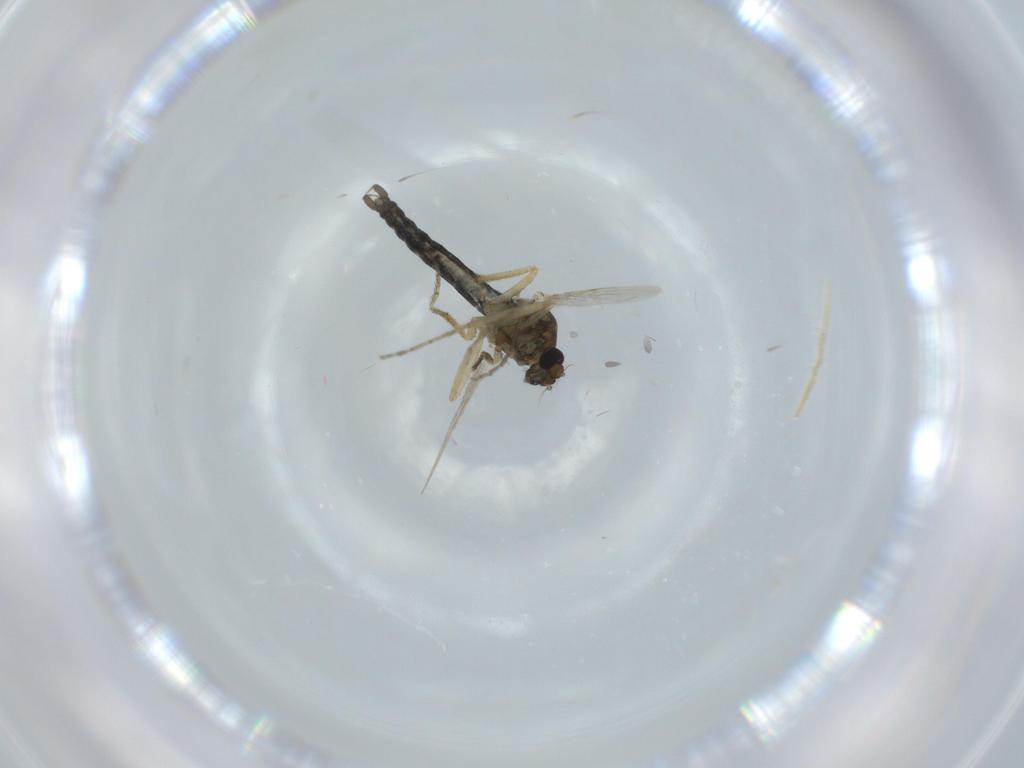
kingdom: Animalia
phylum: Arthropoda
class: Insecta
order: Diptera
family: Ceratopogonidae
